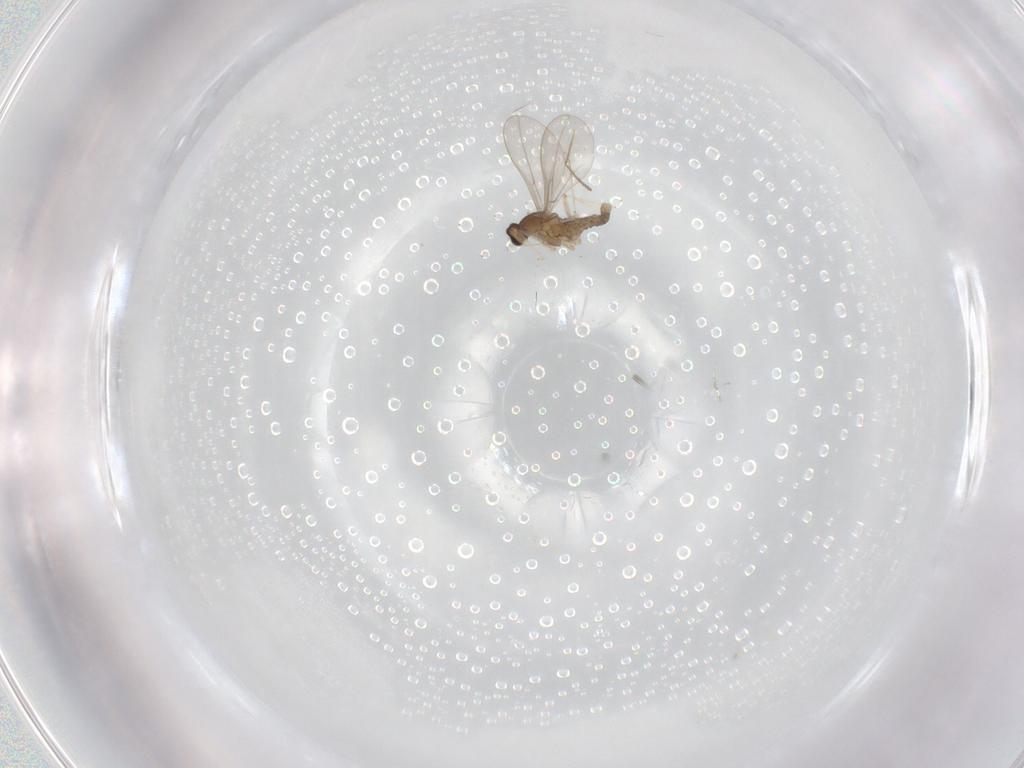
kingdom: Animalia
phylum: Arthropoda
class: Insecta
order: Diptera
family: Cecidomyiidae
